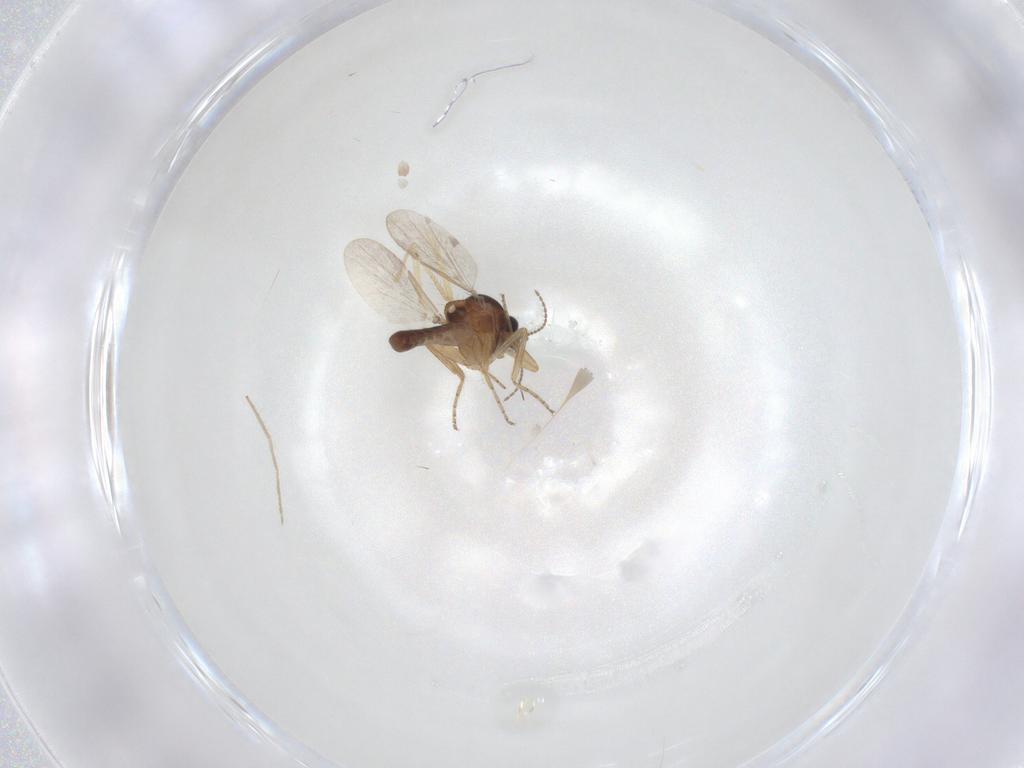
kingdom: Animalia
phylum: Arthropoda
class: Insecta
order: Diptera
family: Ceratopogonidae
